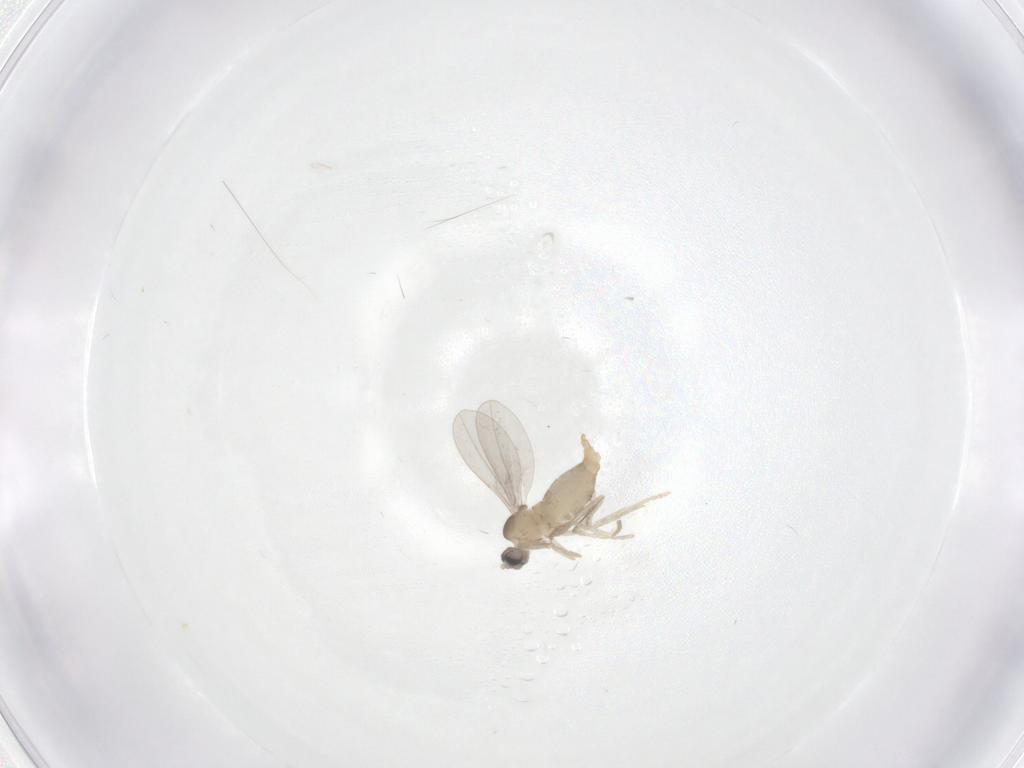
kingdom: Animalia
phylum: Arthropoda
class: Insecta
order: Diptera
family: Cecidomyiidae
